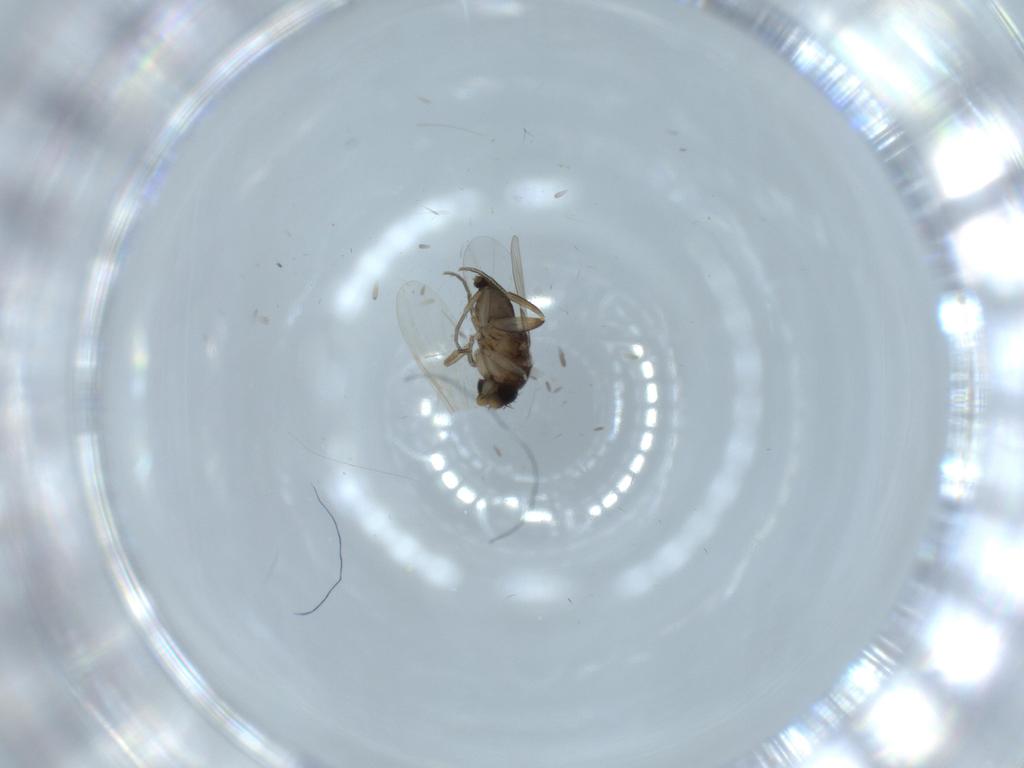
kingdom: Animalia
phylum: Arthropoda
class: Insecta
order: Diptera
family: Phoridae
